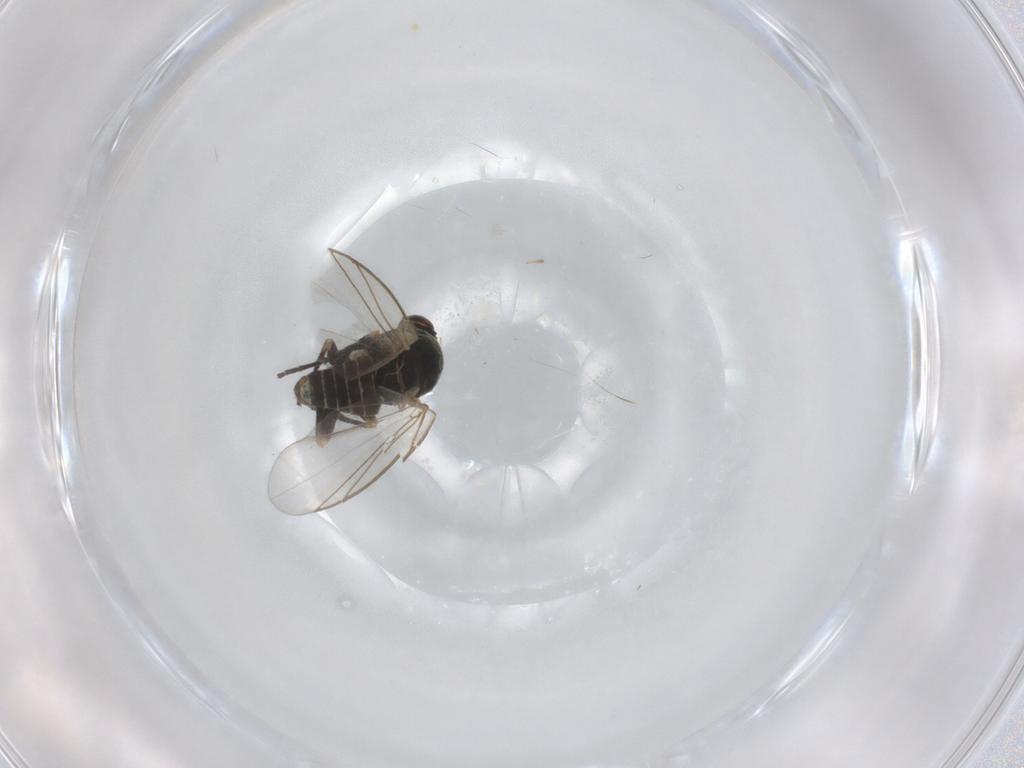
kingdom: Animalia
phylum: Arthropoda
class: Insecta
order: Diptera
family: Agromyzidae
